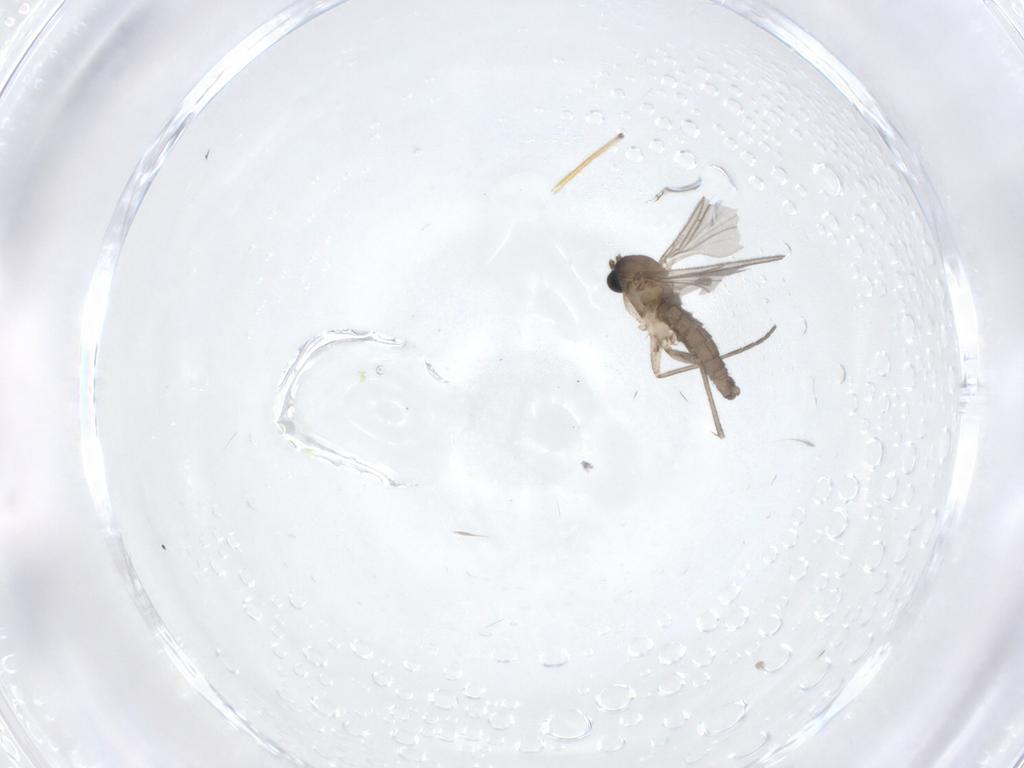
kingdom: Animalia
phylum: Arthropoda
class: Insecta
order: Diptera
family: Sciaridae
